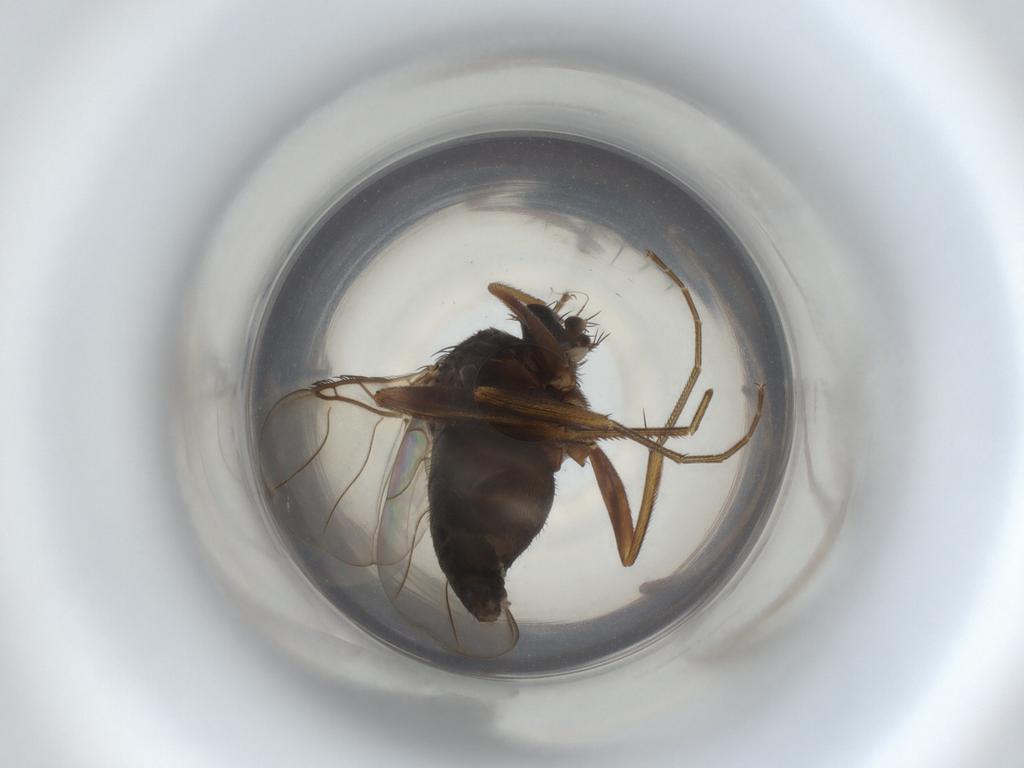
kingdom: Animalia
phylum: Arthropoda
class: Insecta
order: Diptera
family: Phoridae
